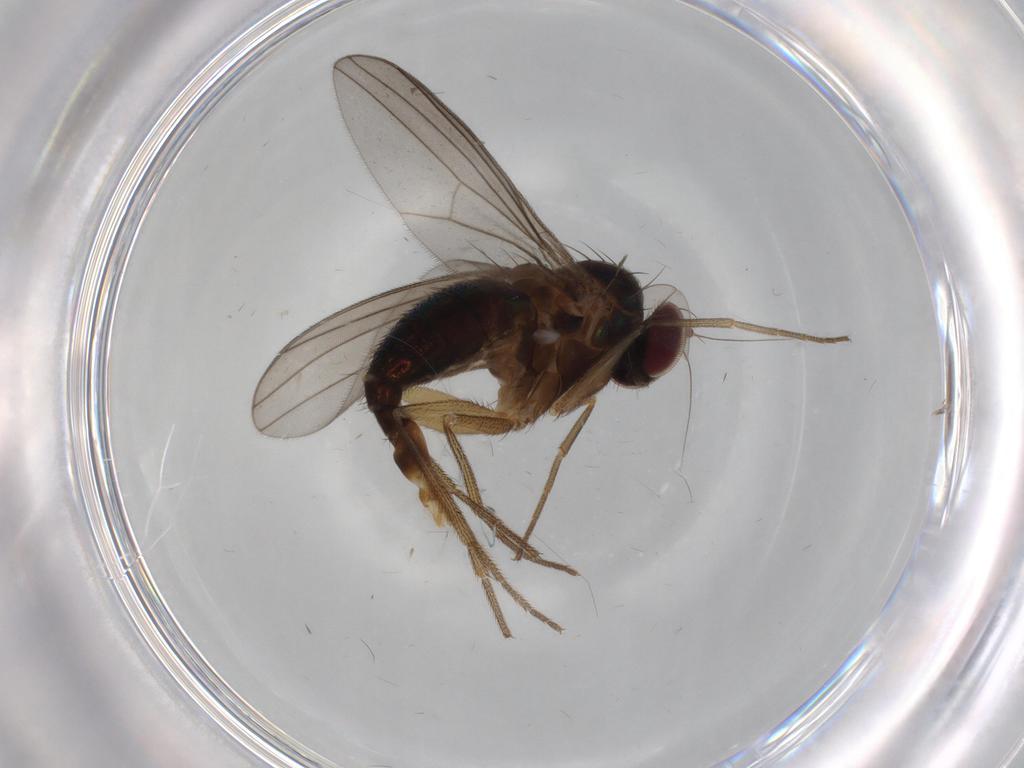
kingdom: Animalia
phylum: Arthropoda
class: Insecta
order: Diptera
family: Cecidomyiidae
